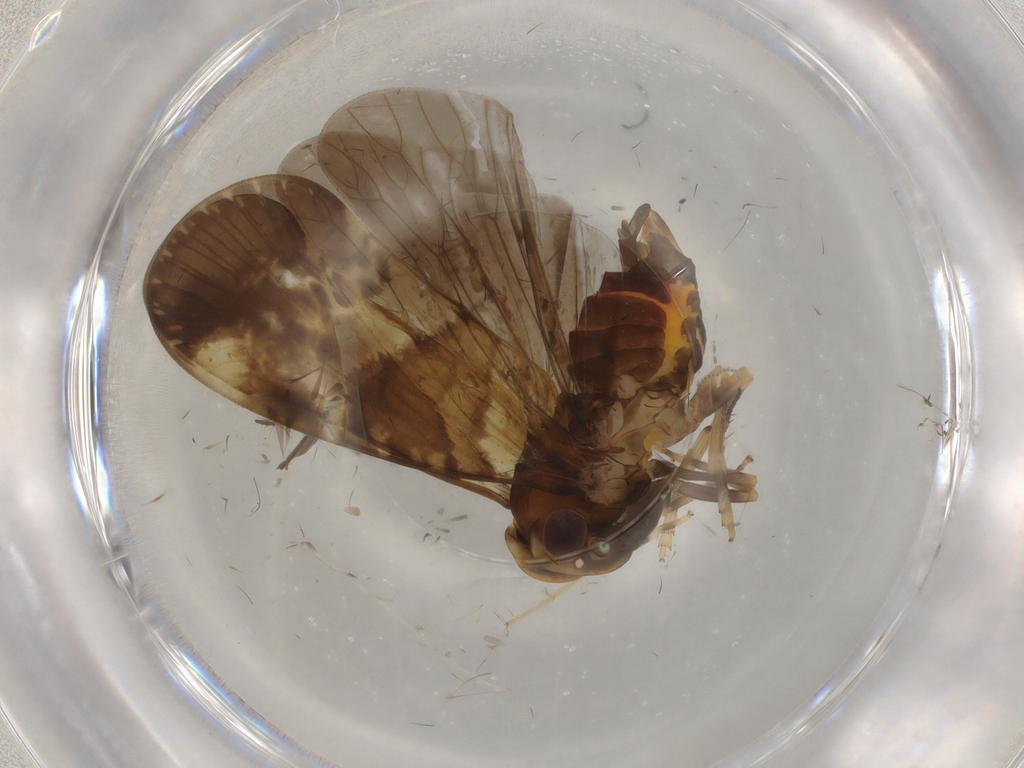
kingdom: Animalia
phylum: Arthropoda
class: Insecta
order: Hemiptera
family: Cixiidae
